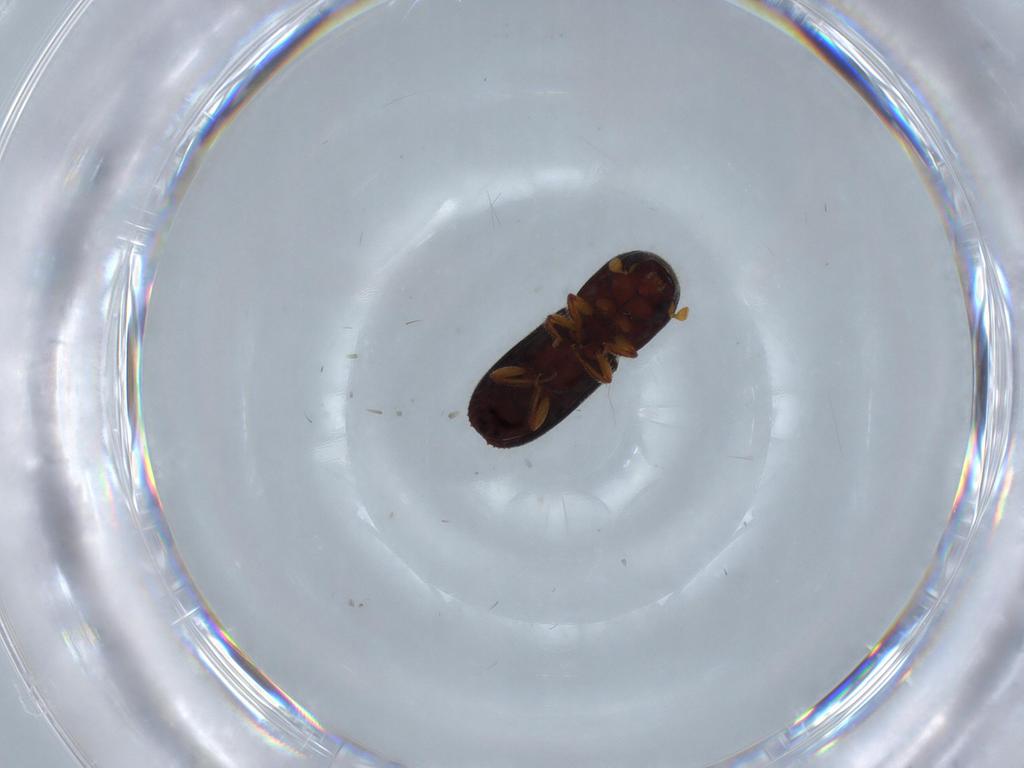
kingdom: Animalia
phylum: Arthropoda
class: Insecta
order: Coleoptera
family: Curculionidae
